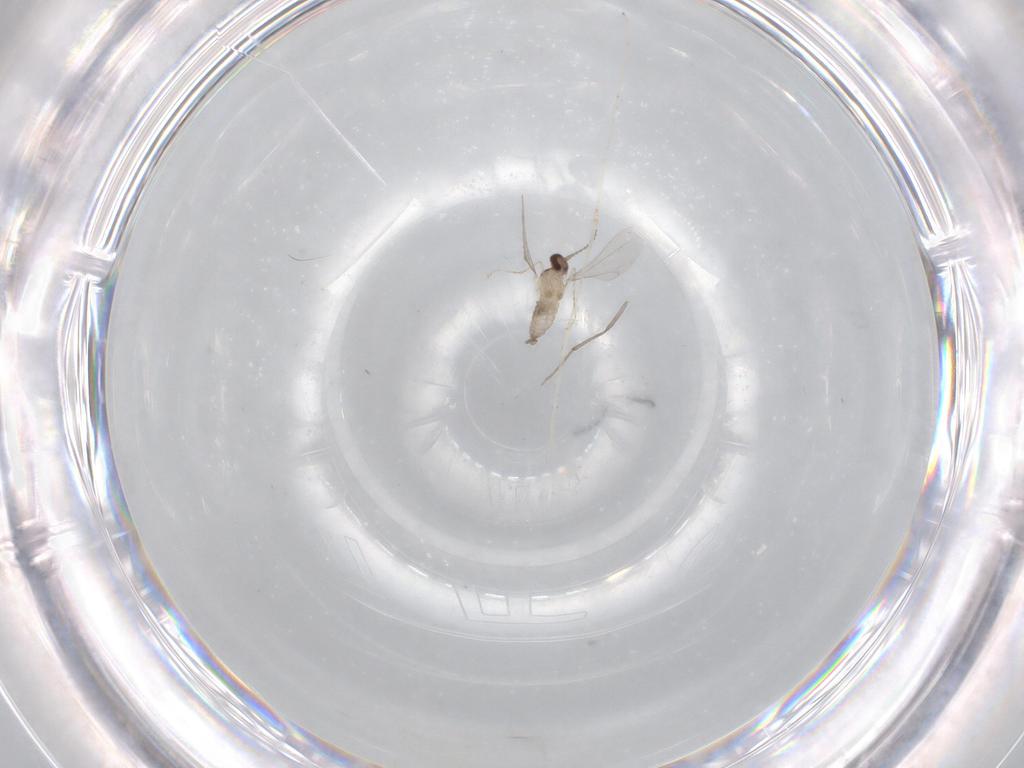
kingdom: Animalia
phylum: Arthropoda
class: Insecta
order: Diptera
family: Cecidomyiidae
